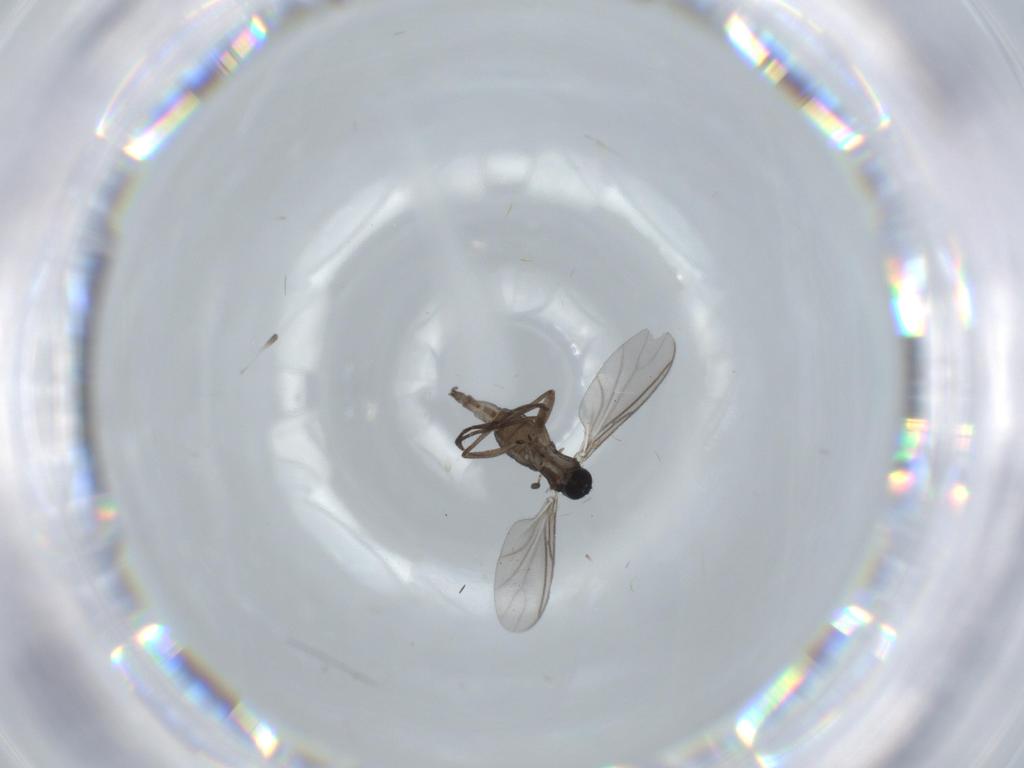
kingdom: Animalia
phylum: Arthropoda
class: Insecta
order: Diptera
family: Sciaridae
